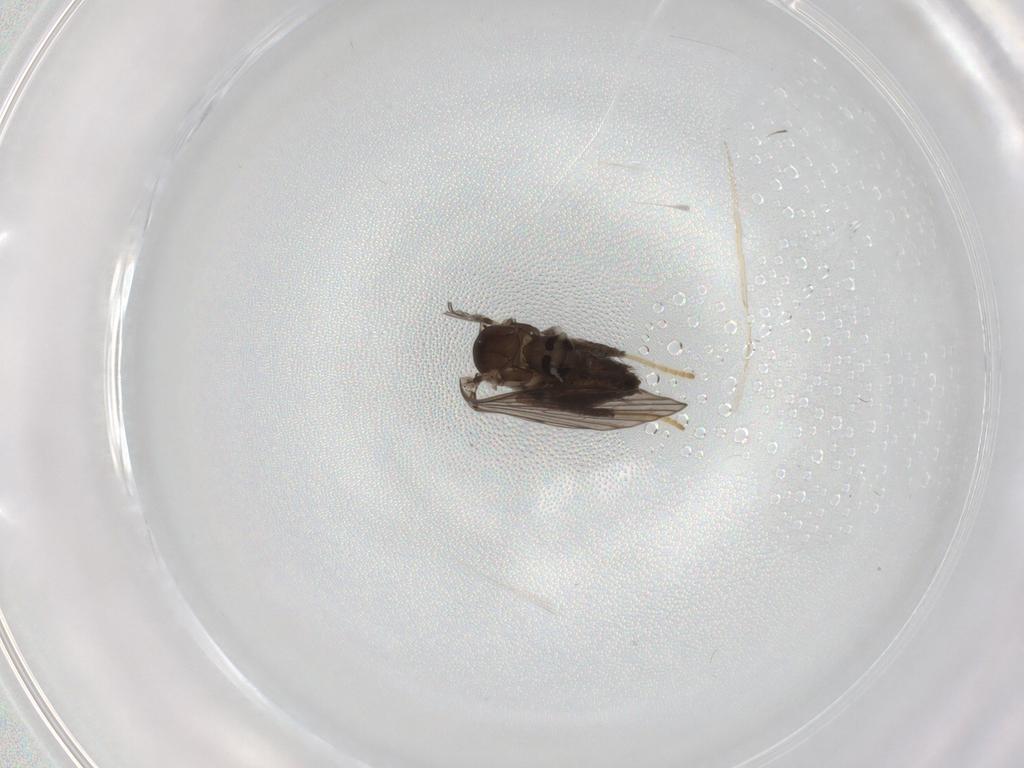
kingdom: Animalia
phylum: Arthropoda
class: Insecta
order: Diptera
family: Psychodidae
